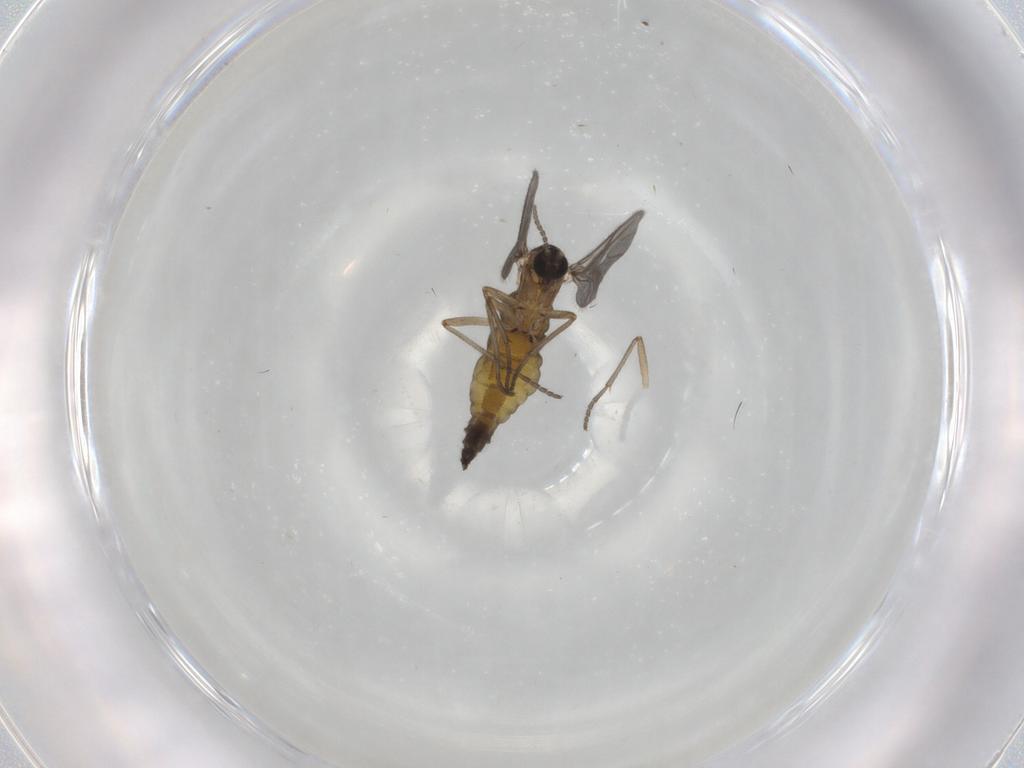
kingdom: Animalia
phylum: Arthropoda
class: Insecta
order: Diptera
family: Sciaridae
